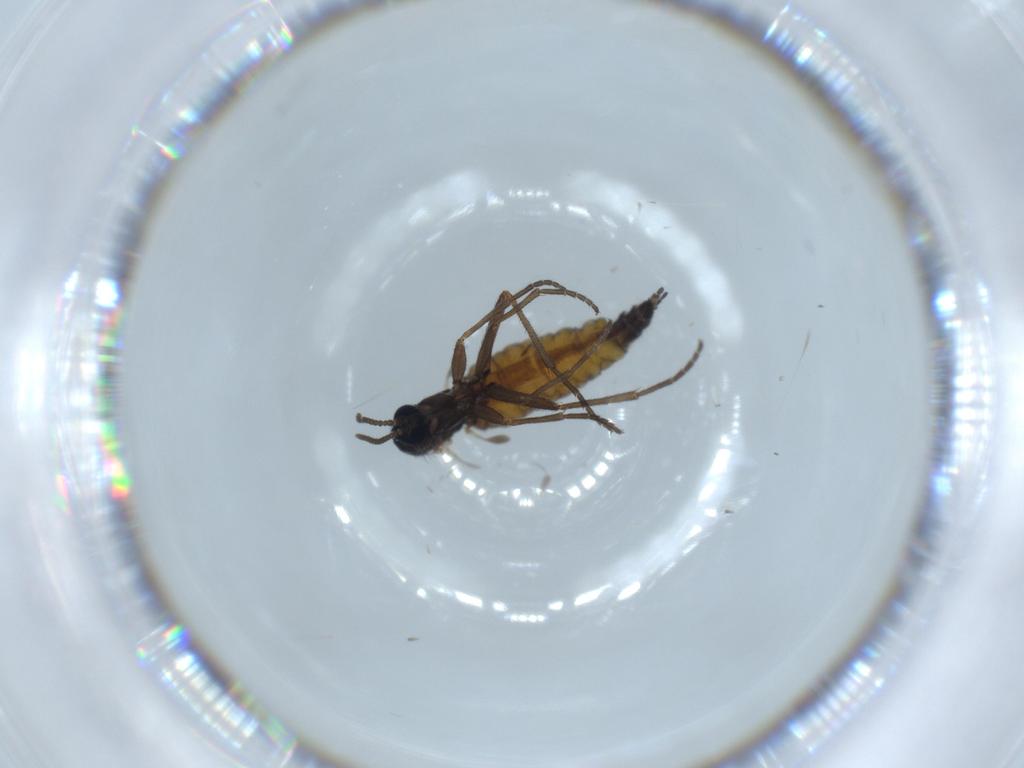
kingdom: Animalia
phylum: Arthropoda
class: Insecta
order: Diptera
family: Sciaridae
